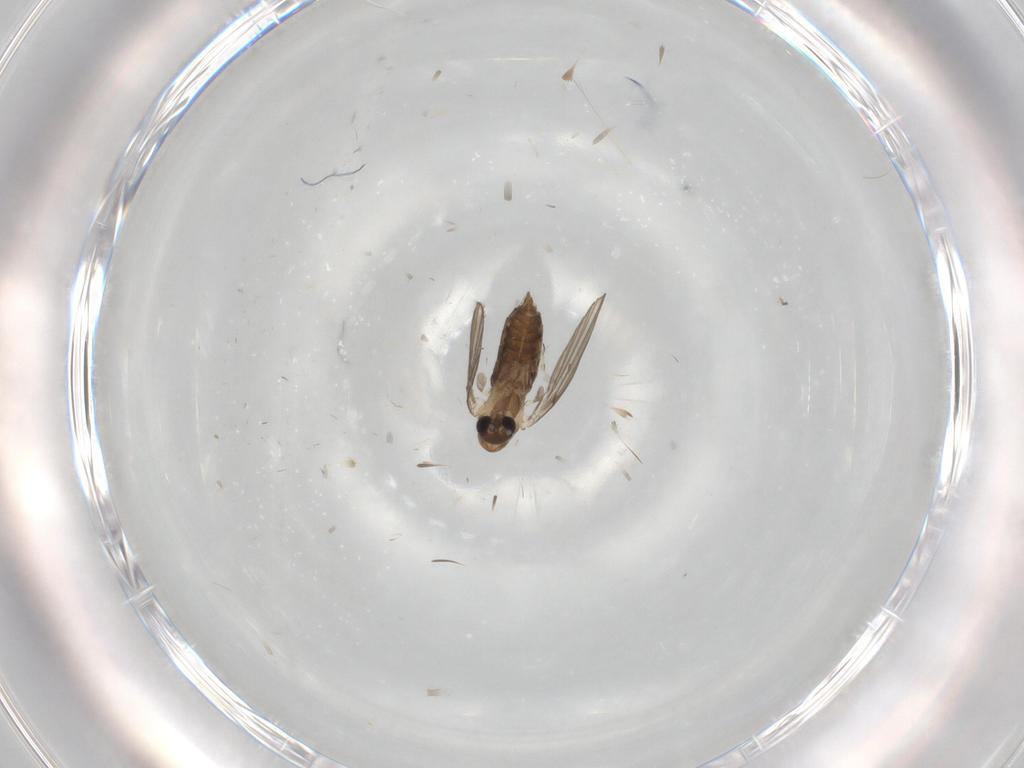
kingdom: Animalia
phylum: Arthropoda
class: Insecta
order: Diptera
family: Psychodidae
